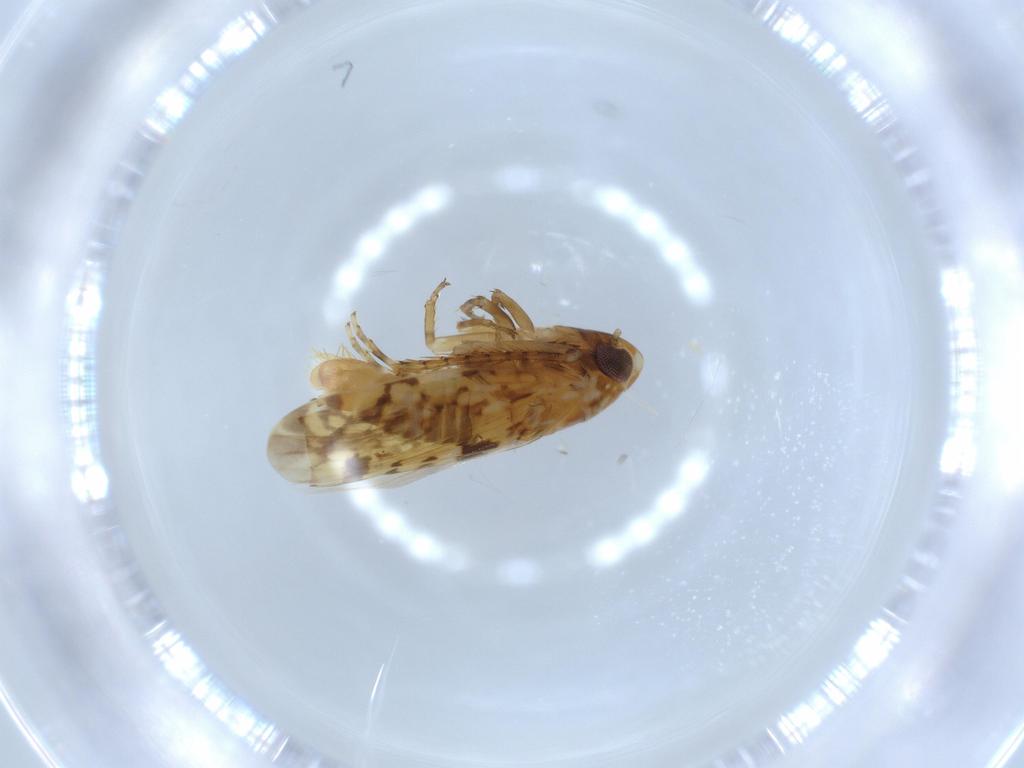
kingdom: Animalia
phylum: Arthropoda
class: Insecta
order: Hemiptera
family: Cicadellidae
